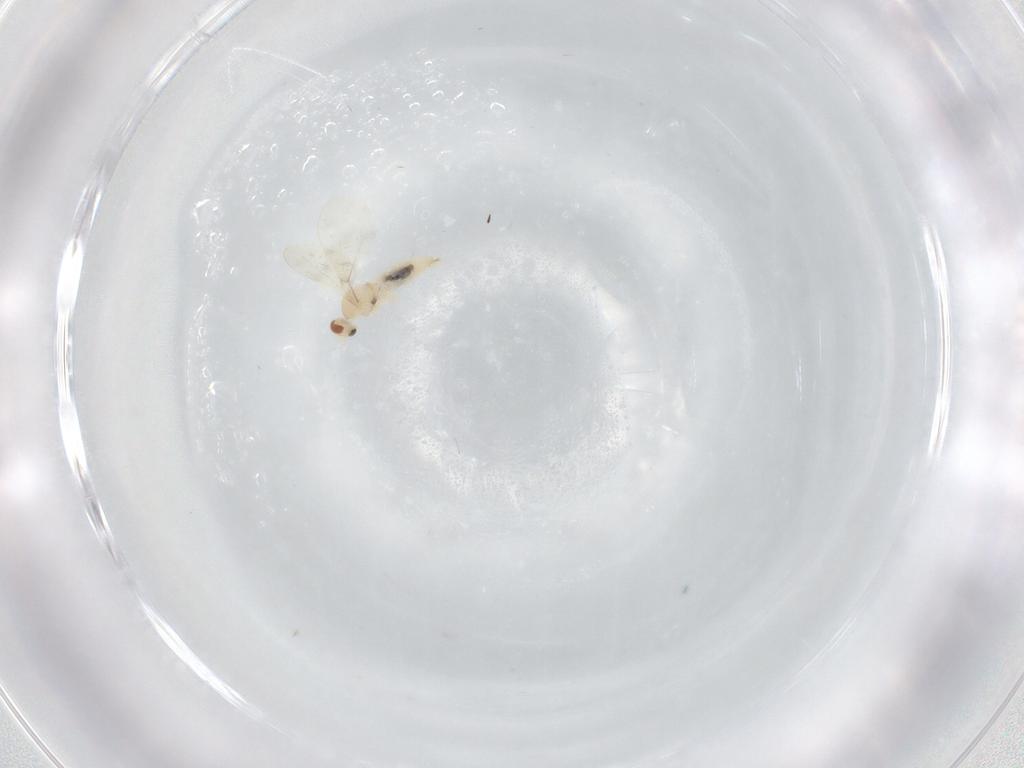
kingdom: Animalia
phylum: Arthropoda
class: Insecta
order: Diptera
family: Cecidomyiidae
